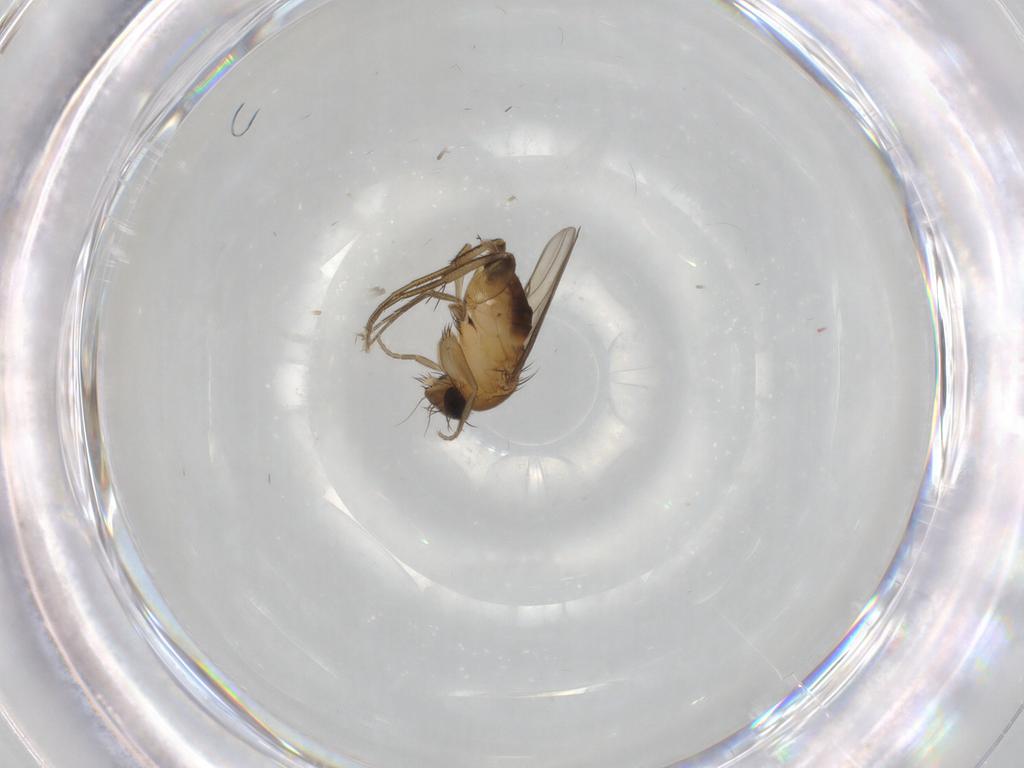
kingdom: Animalia
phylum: Arthropoda
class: Insecta
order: Diptera
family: Phoridae
